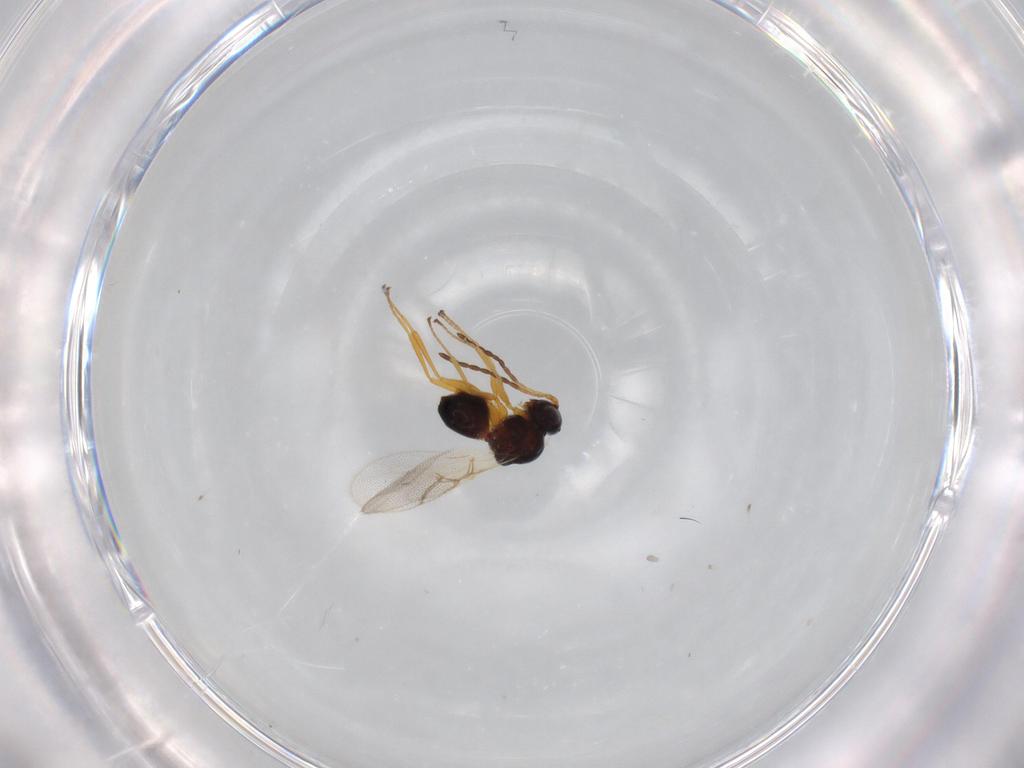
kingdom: Animalia
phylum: Arthropoda
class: Insecta
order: Hymenoptera
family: Figitidae
